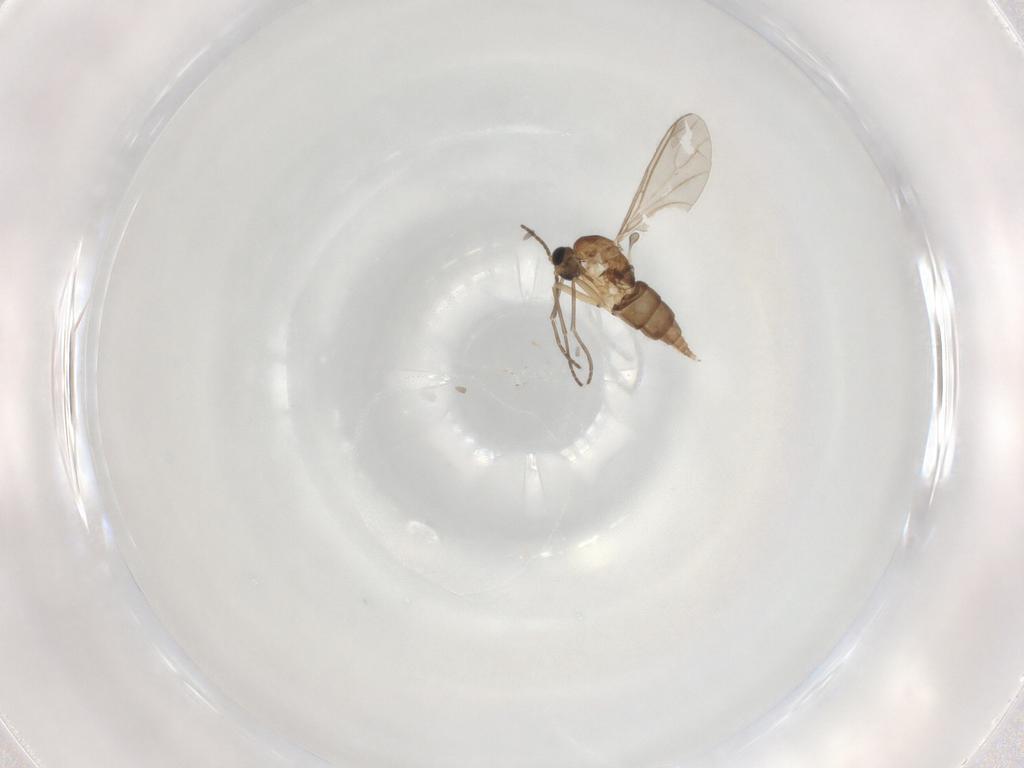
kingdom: Animalia
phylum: Arthropoda
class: Insecta
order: Diptera
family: Sciaridae
